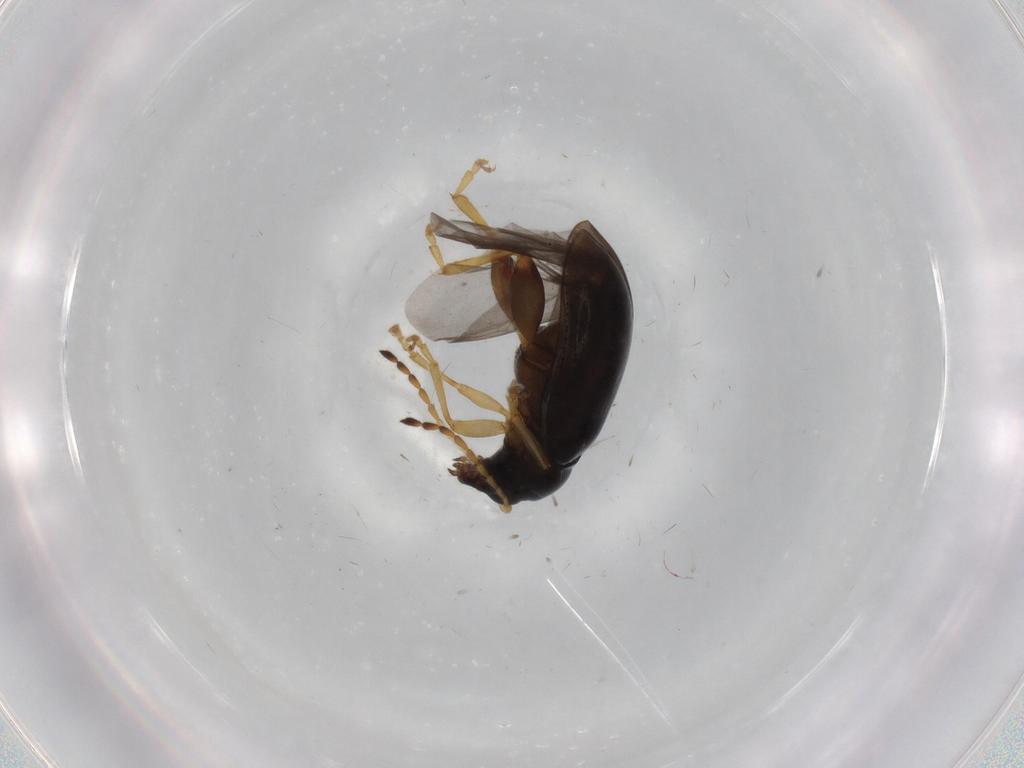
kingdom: Animalia
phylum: Arthropoda
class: Insecta
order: Coleoptera
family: Chrysomelidae
